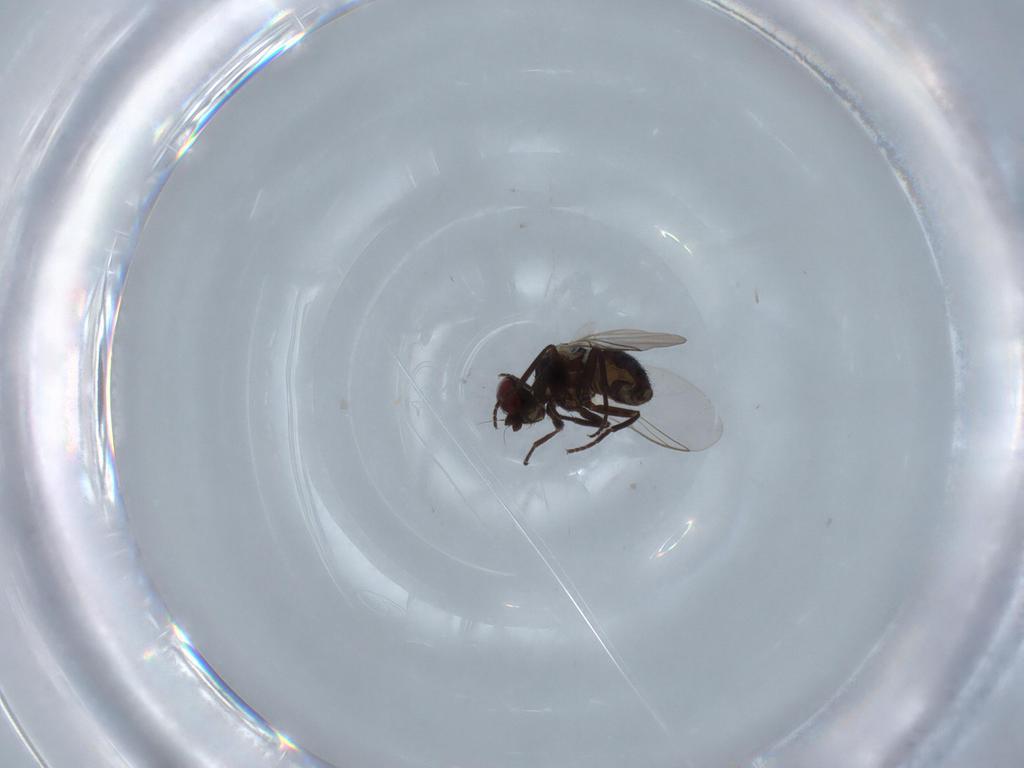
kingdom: Animalia
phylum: Arthropoda
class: Insecta
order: Diptera
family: Agromyzidae
